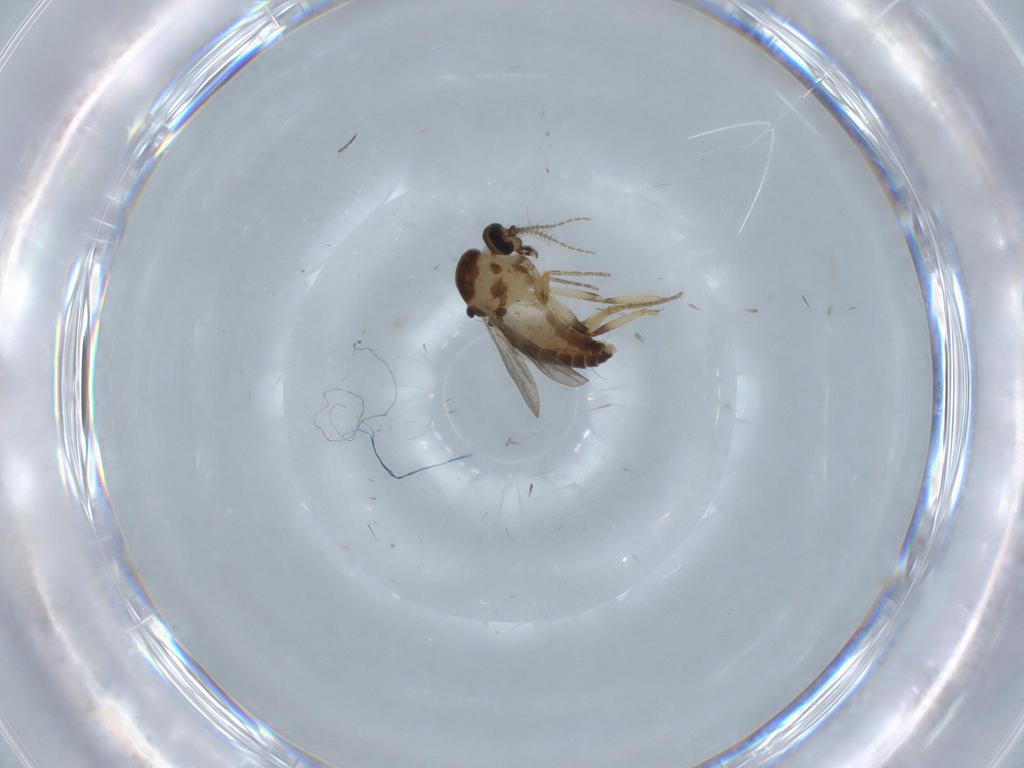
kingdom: Animalia
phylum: Arthropoda
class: Insecta
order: Diptera
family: Ceratopogonidae
